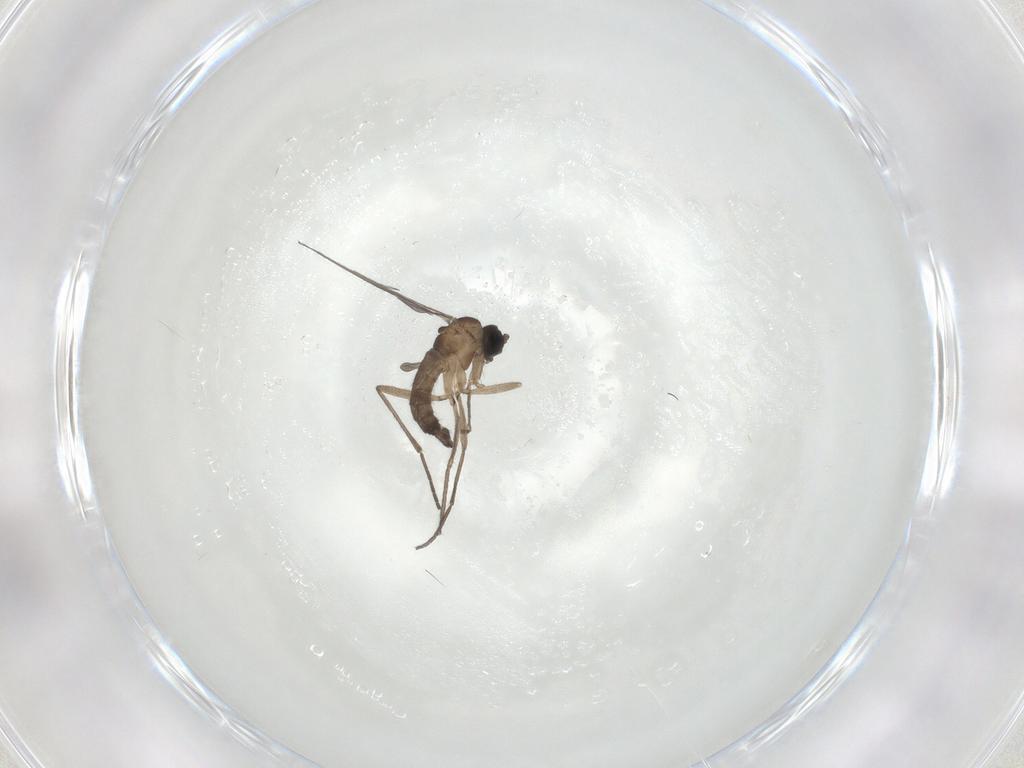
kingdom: Animalia
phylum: Arthropoda
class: Insecta
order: Diptera
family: Sciaridae
